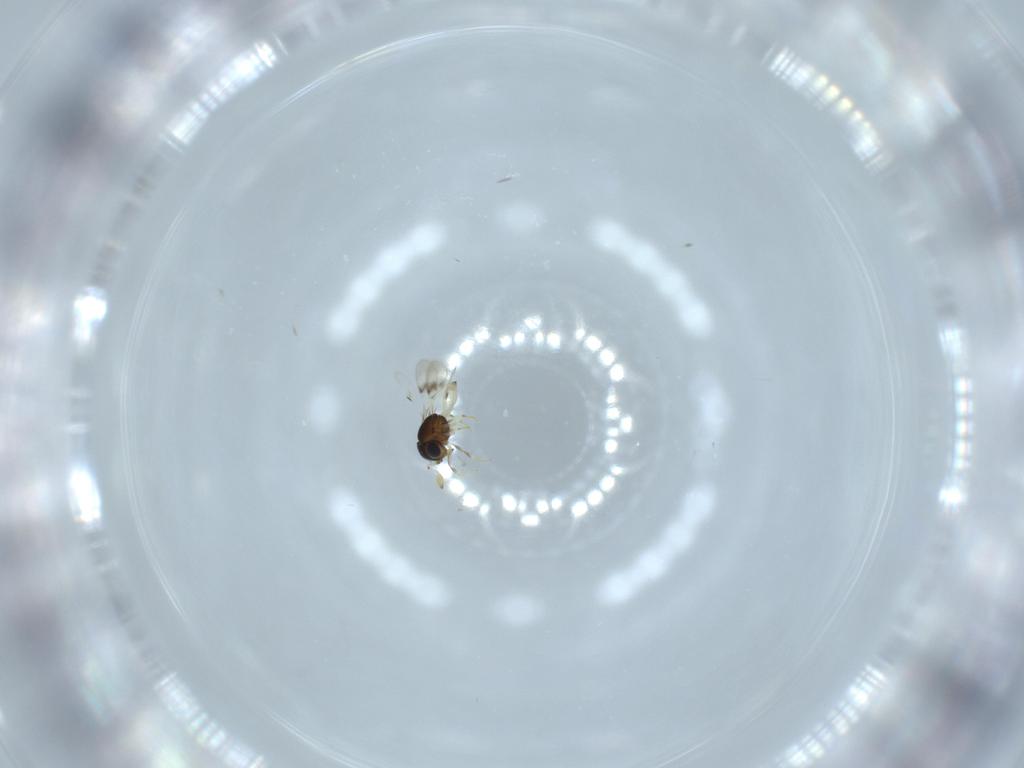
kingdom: Animalia
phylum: Arthropoda
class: Insecta
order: Hymenoptera
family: Scelionidae
